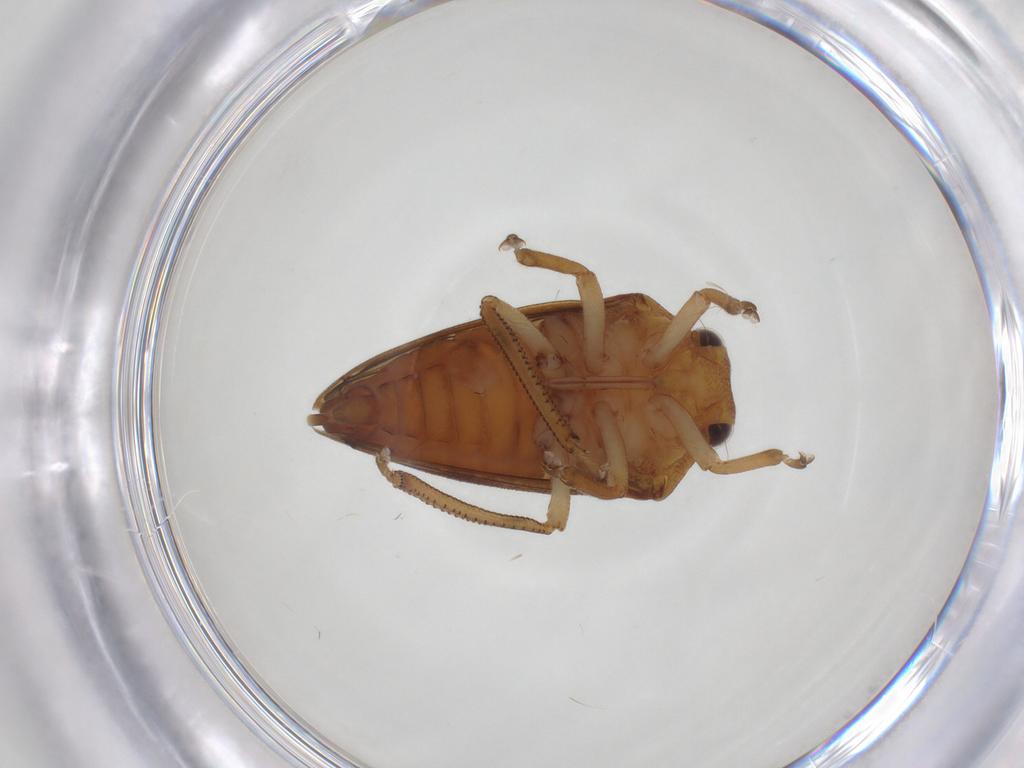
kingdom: Animalia
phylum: Arthropoda
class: Insecta
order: Hemiptera
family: Aetalionidae
